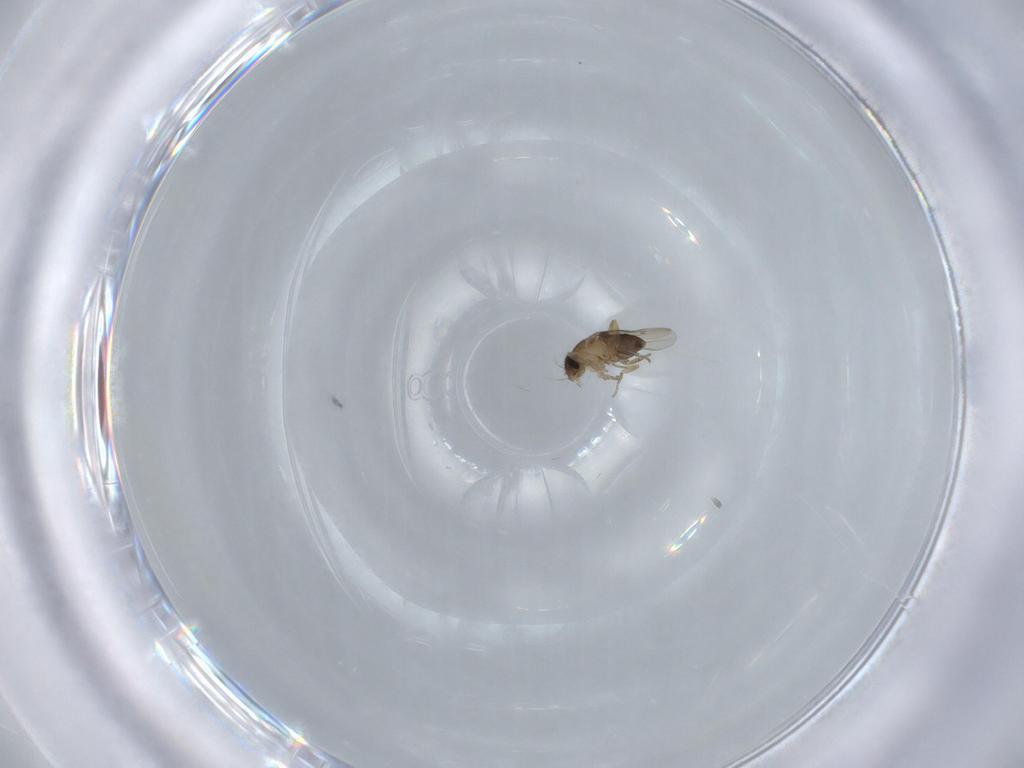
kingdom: Animalia
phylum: Arthropoda
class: Insecta
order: Diptera
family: Phoridae
